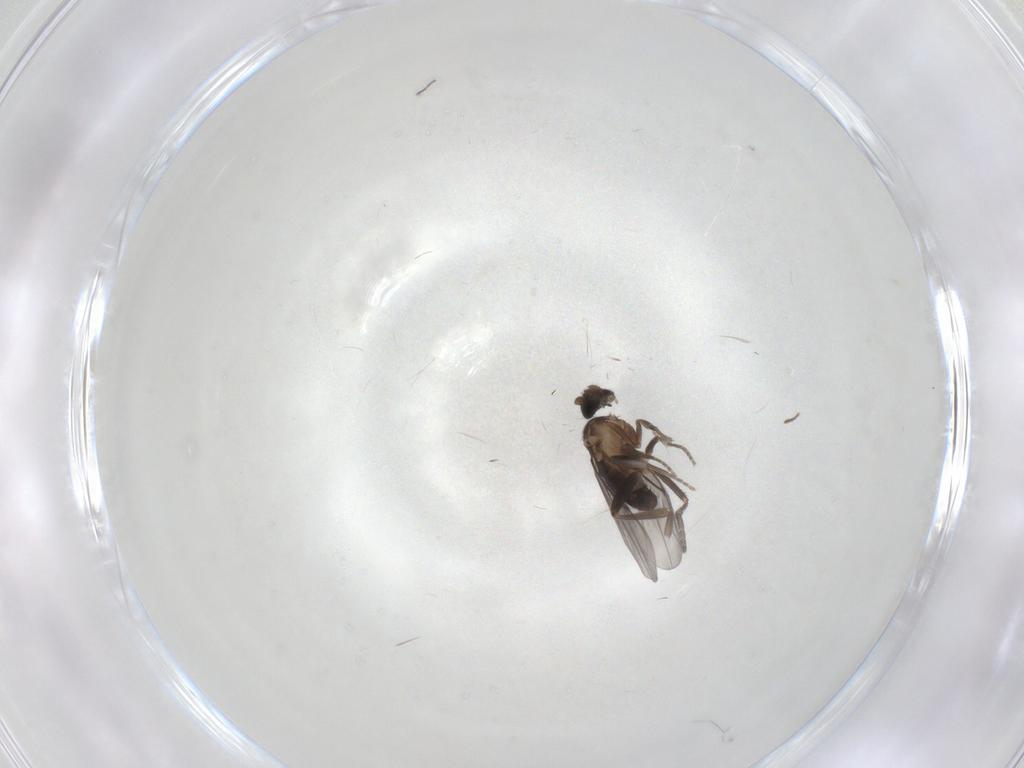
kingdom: Animalia
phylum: Arthropoda
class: Insecta
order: Diptera
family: Phoridae
